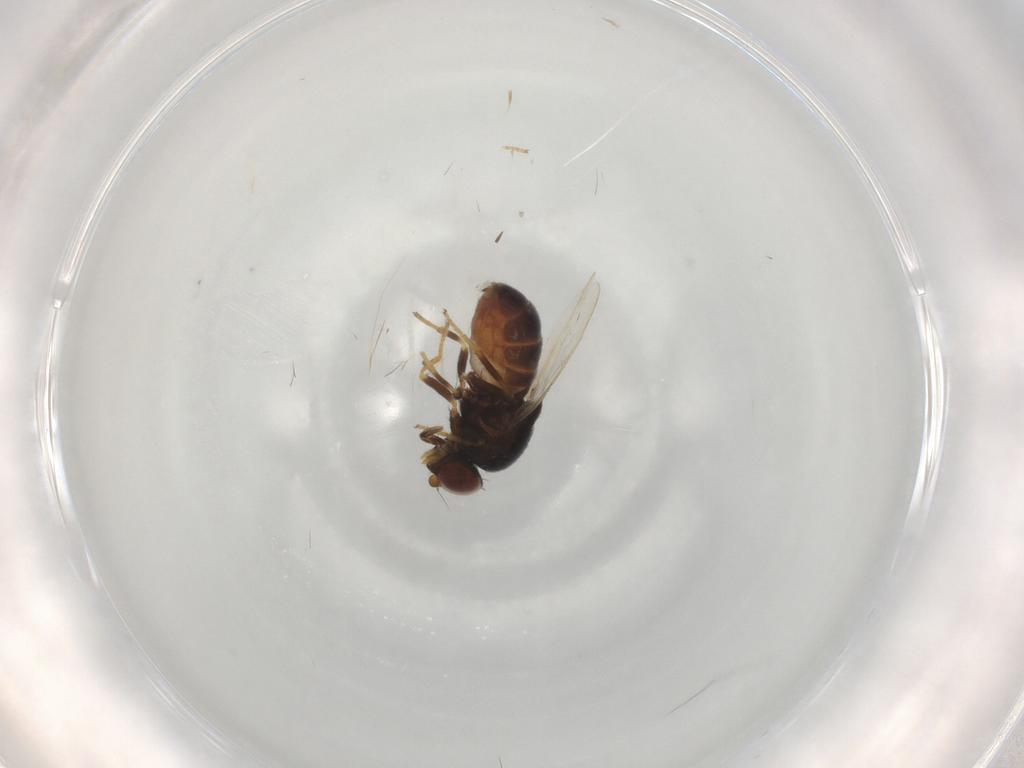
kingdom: Animalia
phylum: Arthropoda
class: Insecta
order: Diptera
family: Chloropidae
